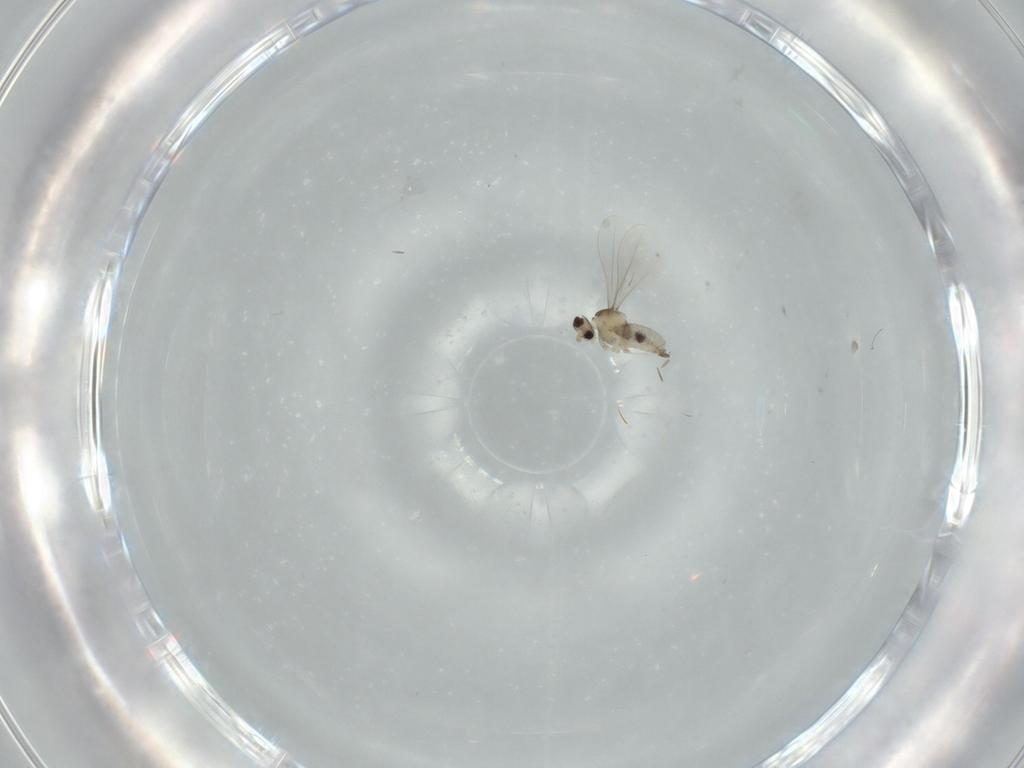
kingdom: Animalia
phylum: Arthropoda
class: Insecta
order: Diptera
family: Cecidomyiidae
